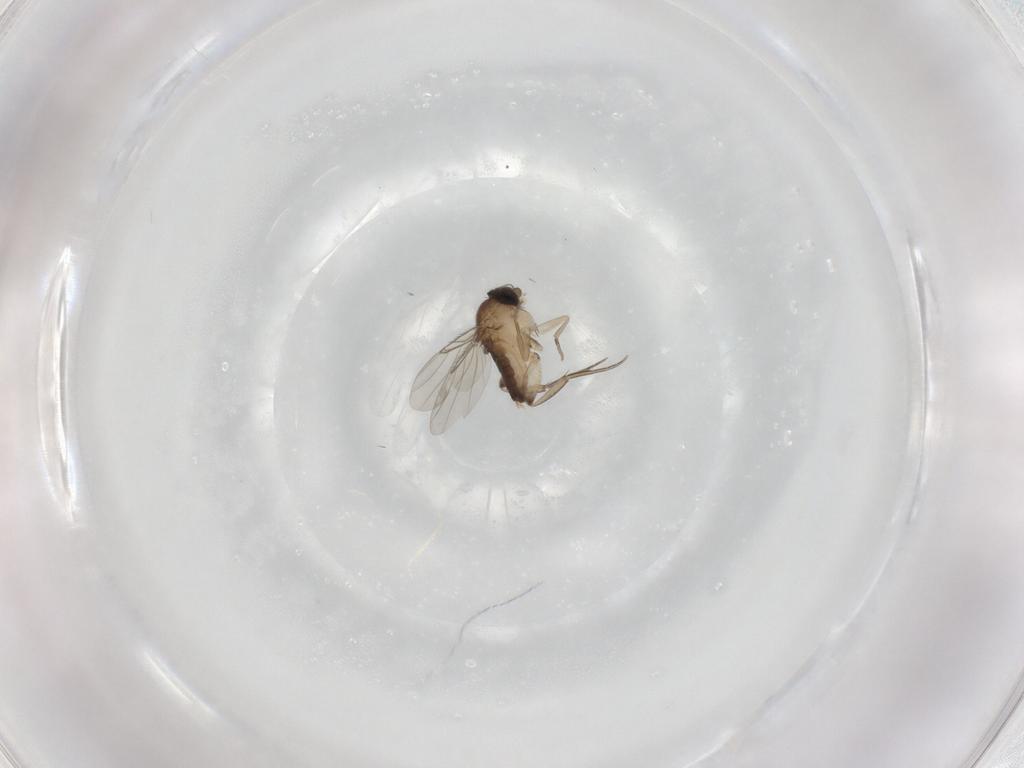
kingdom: Animalia
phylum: Arthropoda
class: Insecta
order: Diptera
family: Phoridae
